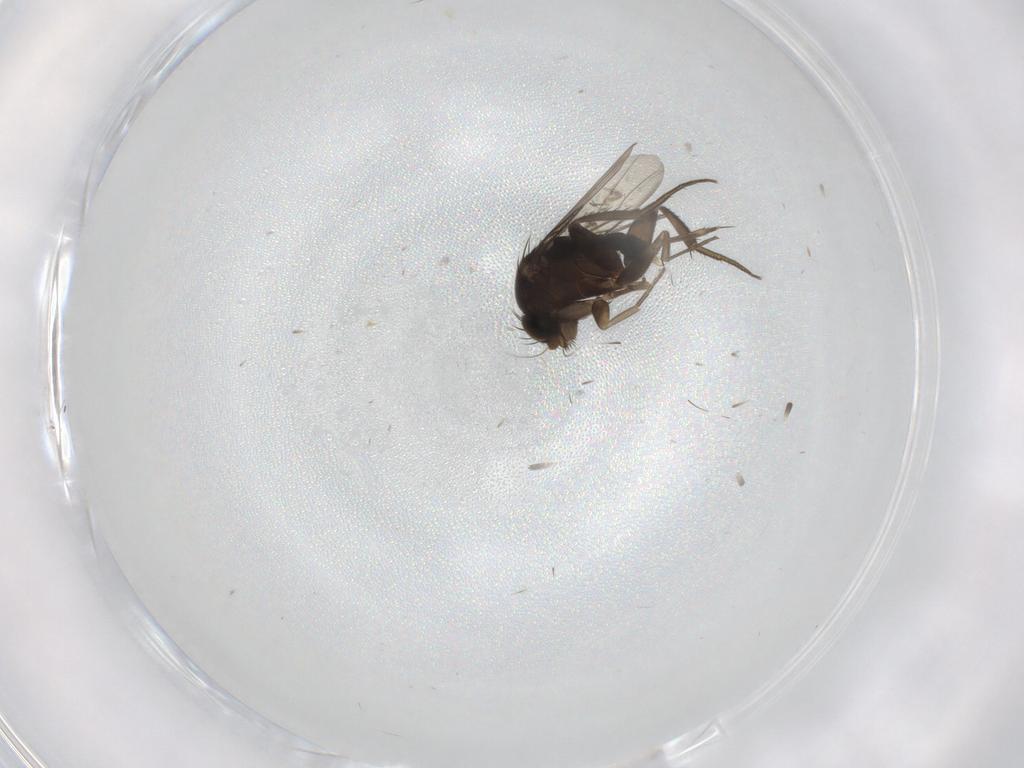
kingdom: Animalia
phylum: Arthropoda
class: Insecta
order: Diptera
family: Phoridae
